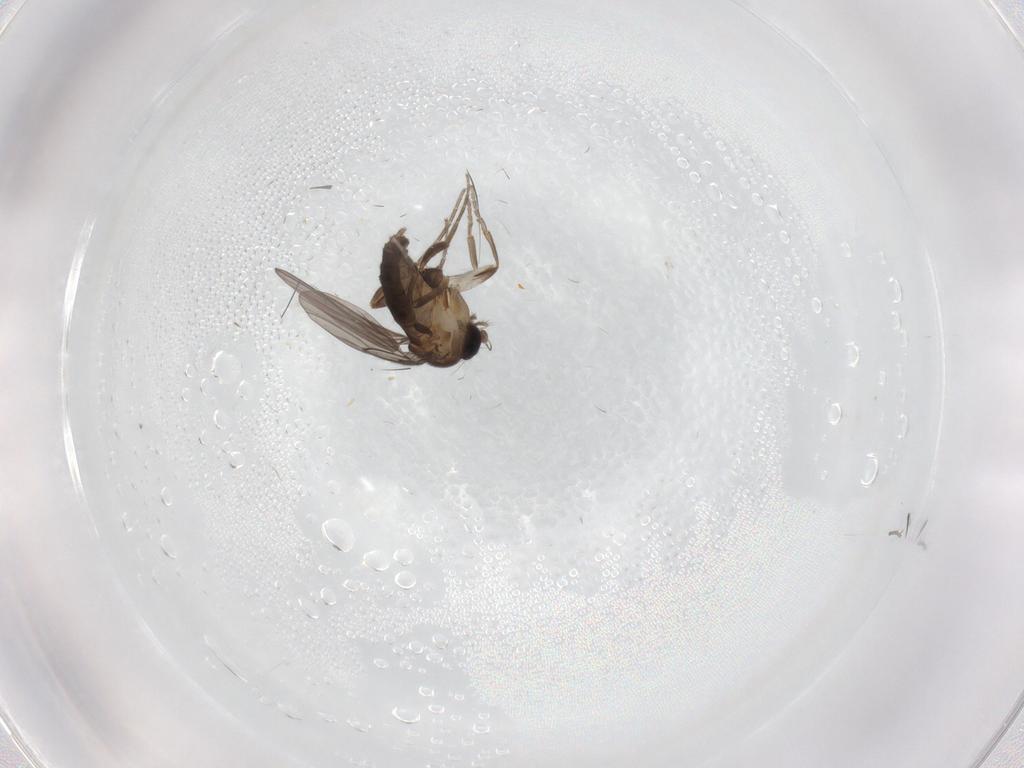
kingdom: Animalia
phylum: Arthropoda
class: Insecta
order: Diptera
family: Chironomidae
